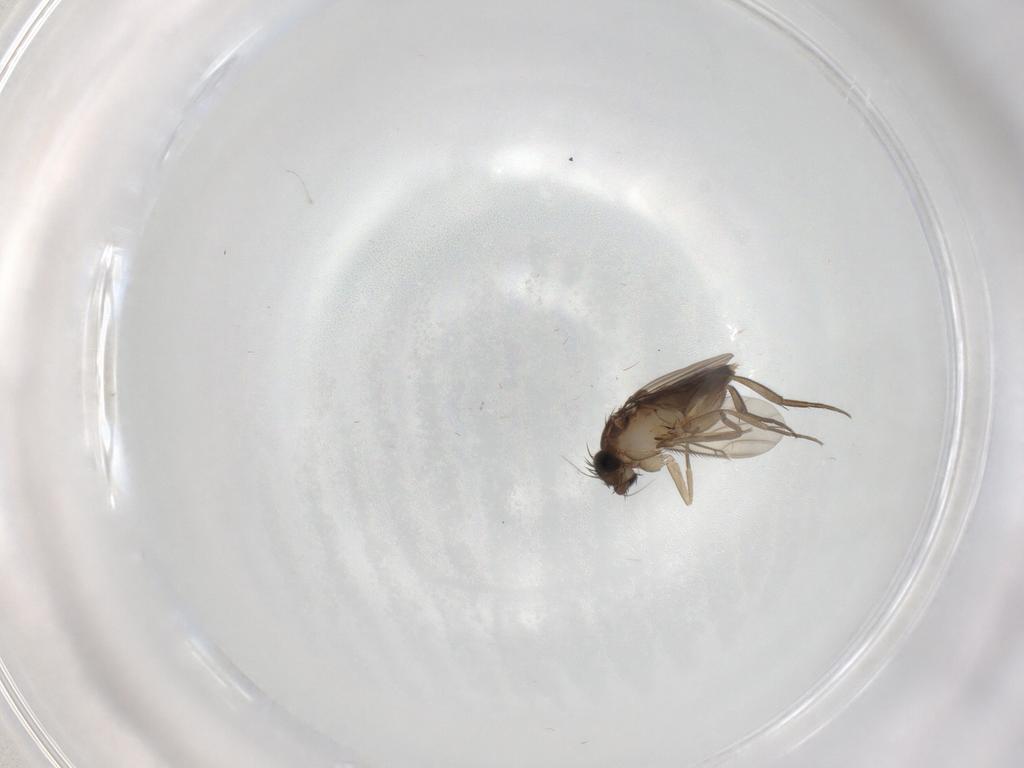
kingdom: Animalia
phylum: Arthropoda
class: Insecta
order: Diptera
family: Phoridae
